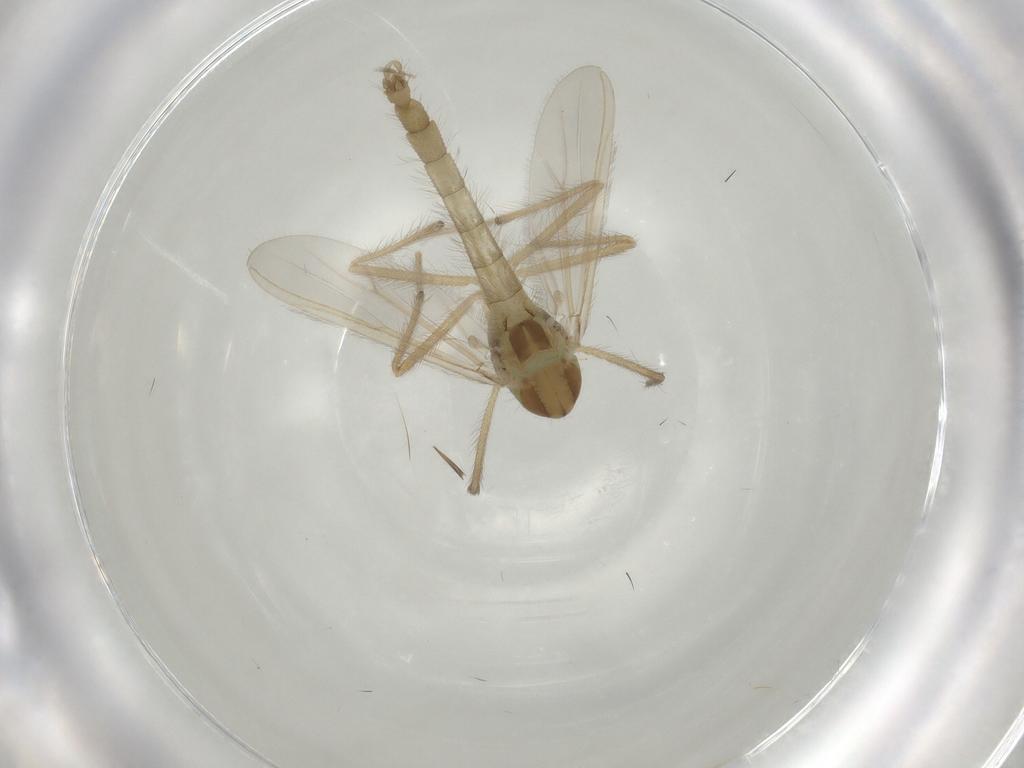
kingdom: Animalia
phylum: Arthropoda
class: Insecta
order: Diptera
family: Chironomidae
